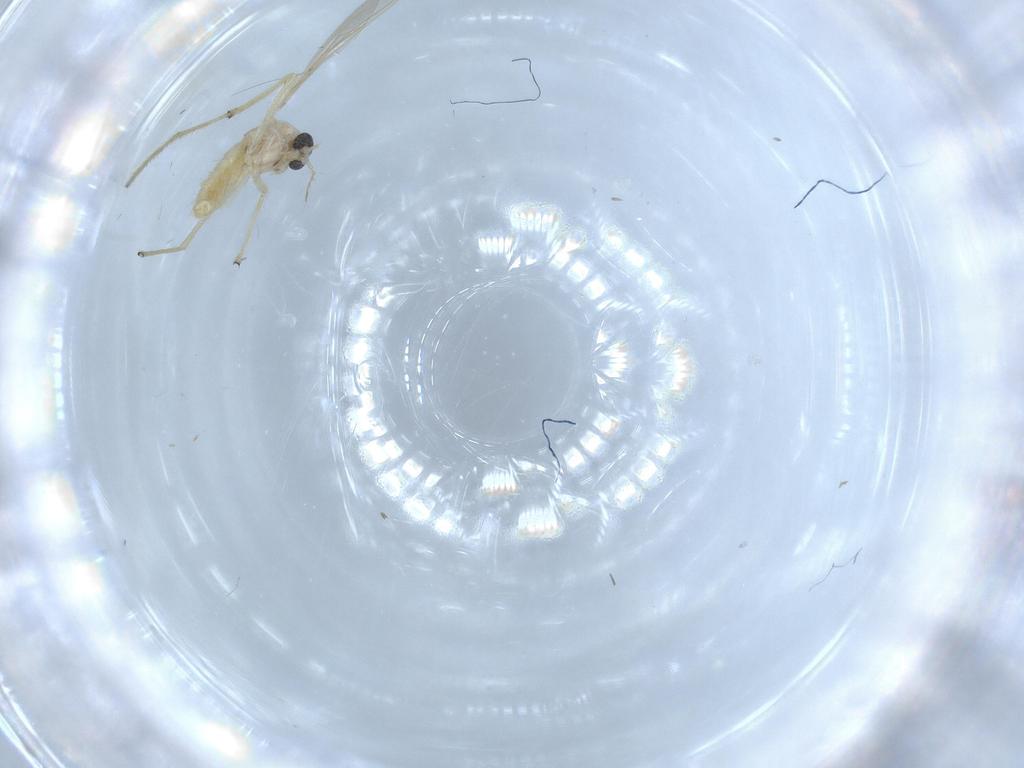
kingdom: Animalia
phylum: Arthropoda
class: Insecta
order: Diptera
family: Chironomidae
